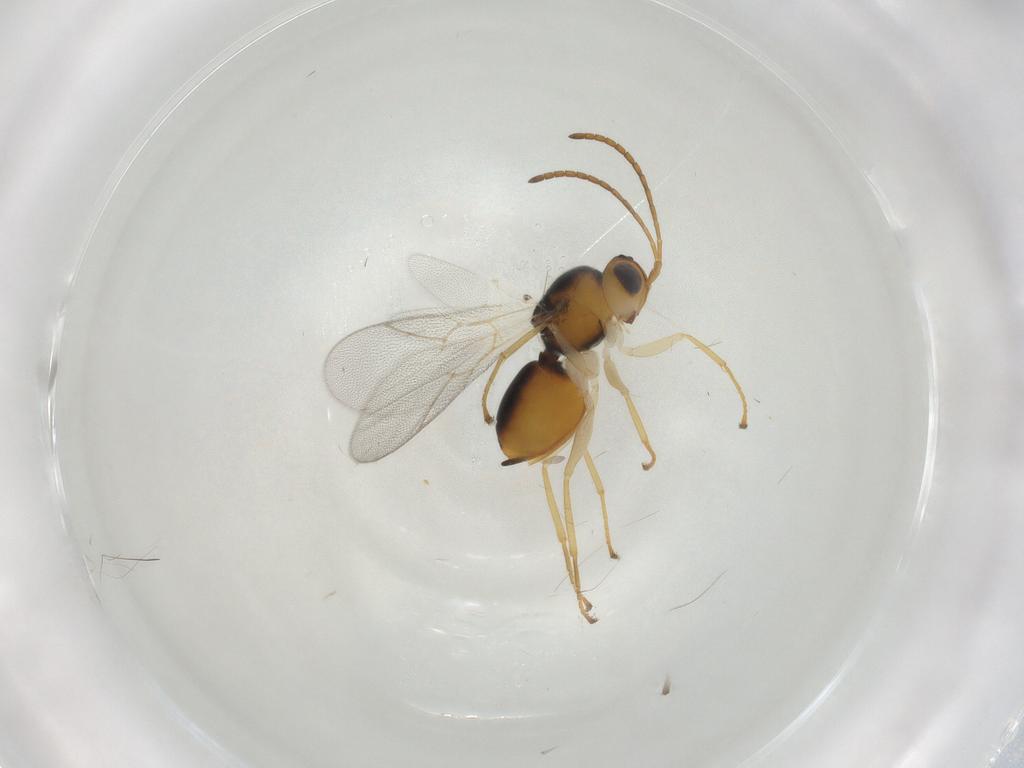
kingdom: Animalia
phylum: Arthropoda
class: Insecta
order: Hymenoptera
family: Cynipidae
